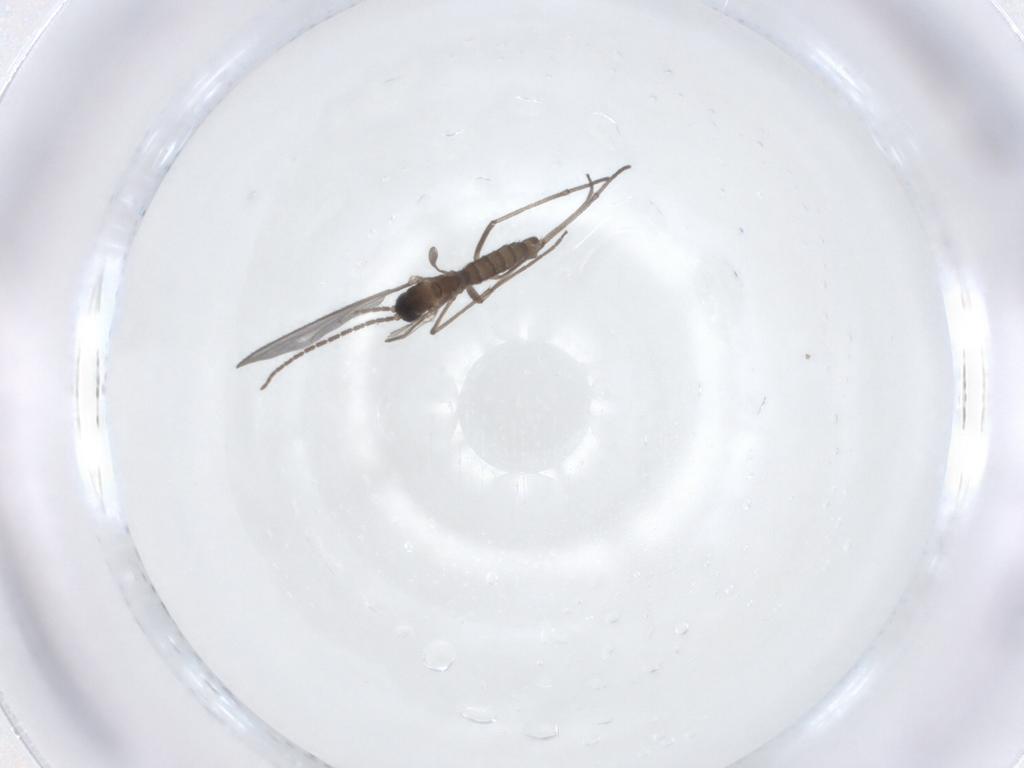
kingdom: Animalia
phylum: Arthropoda
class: Insecta
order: Diptera
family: Sciaridae
